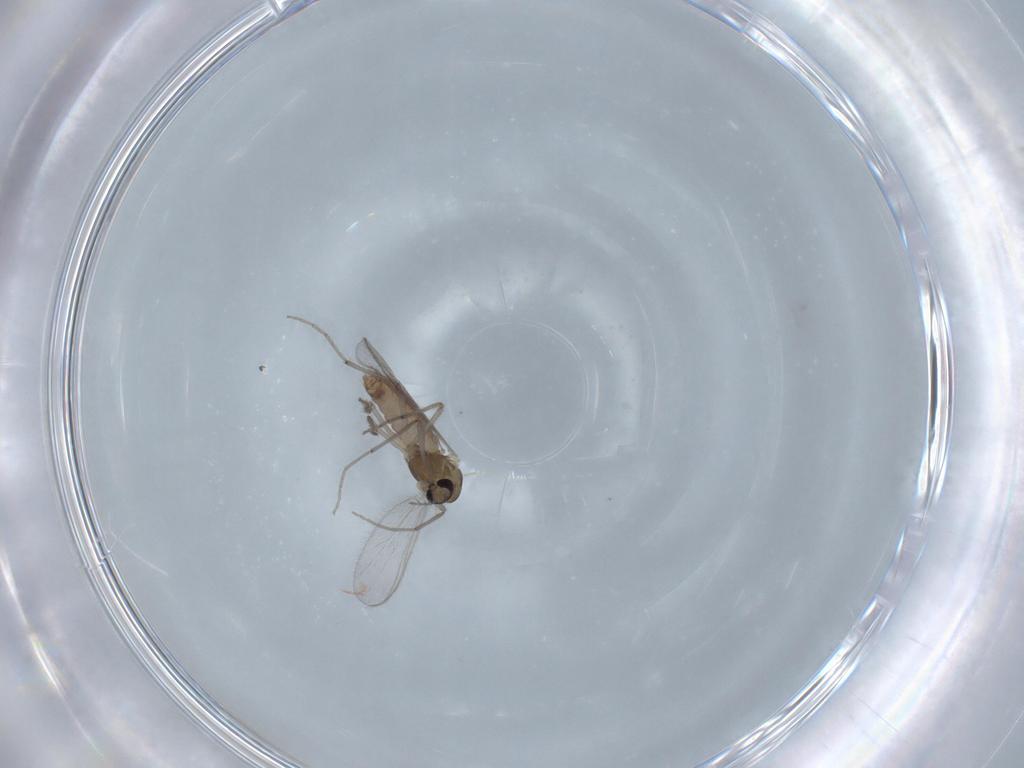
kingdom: Animalia
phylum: Arthropoda
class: Insecta
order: Diptera
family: Chironomidae
